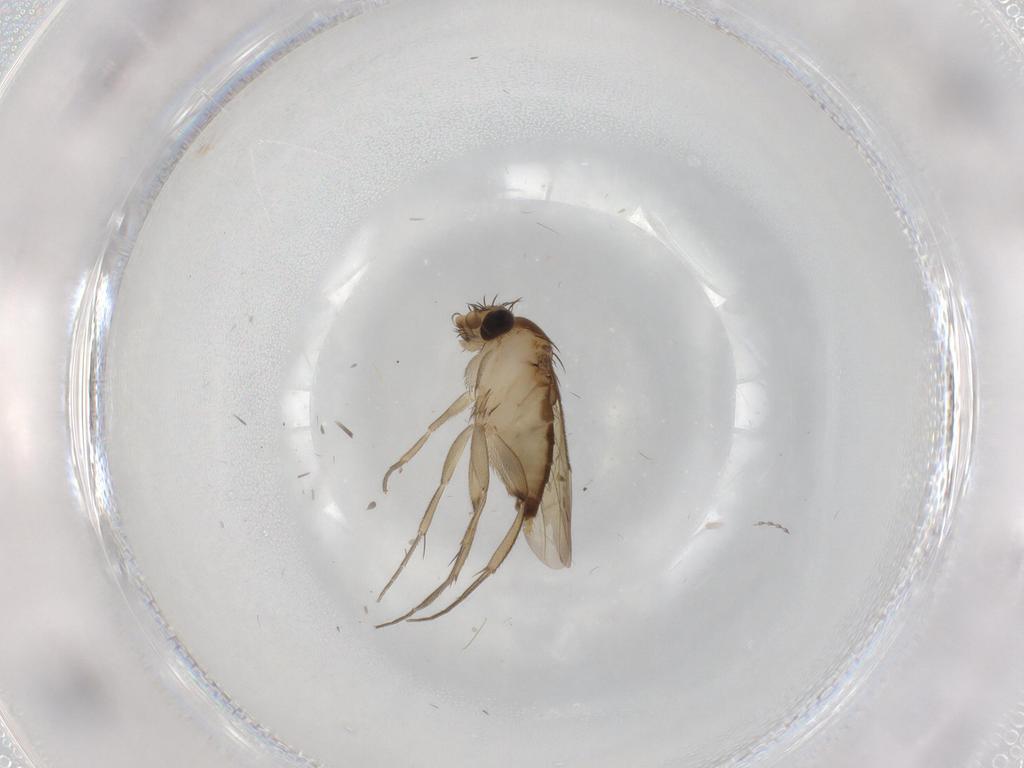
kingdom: Animalia
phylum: Arthropoda
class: Insecta
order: Diptera
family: Phoridae
